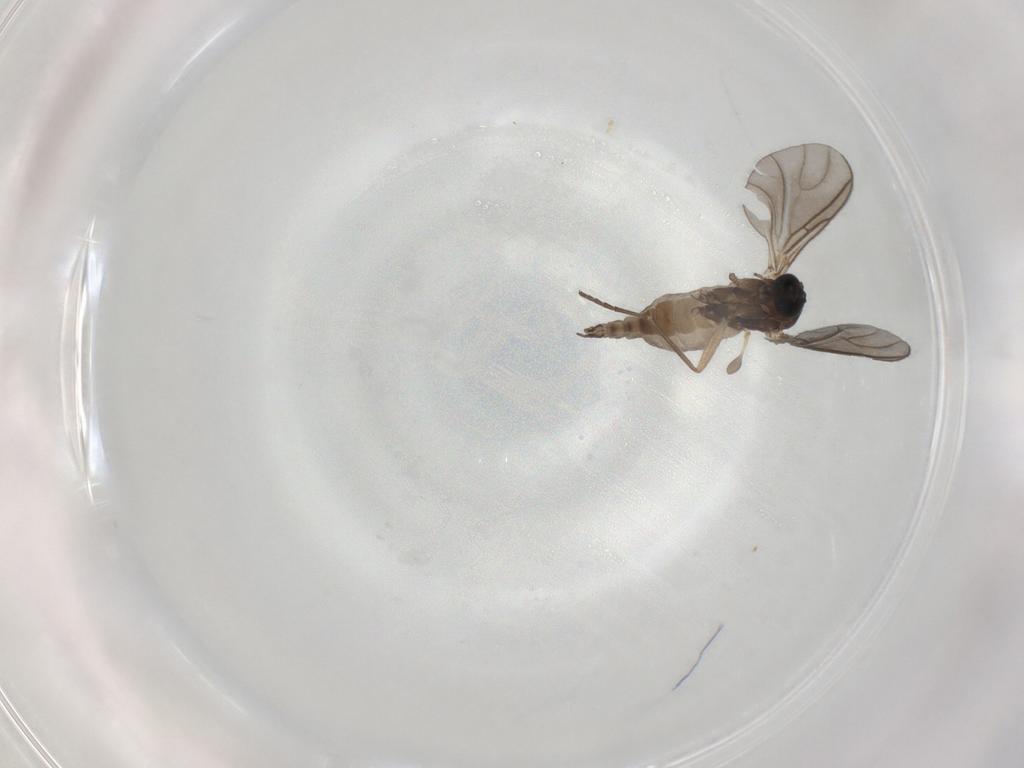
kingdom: Animalia
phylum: Arthropoda
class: Insecta
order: Diptera
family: Sciaridae
